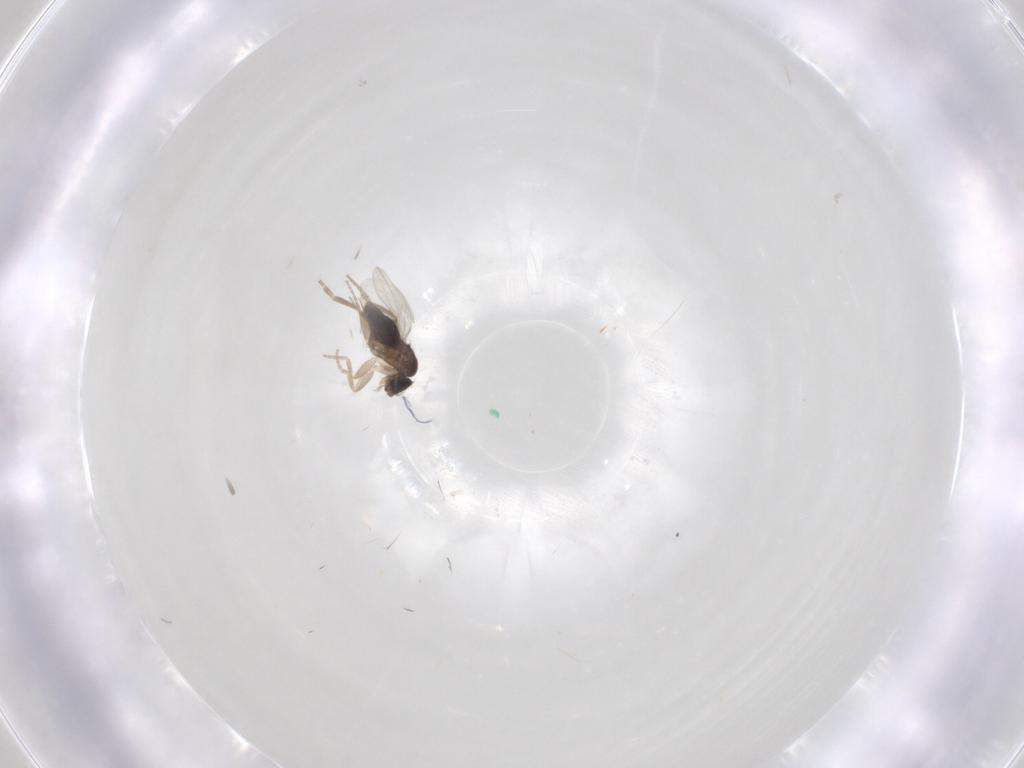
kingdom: Animalia
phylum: Arthropoda
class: Insecta
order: Diptera
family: Phoridae
